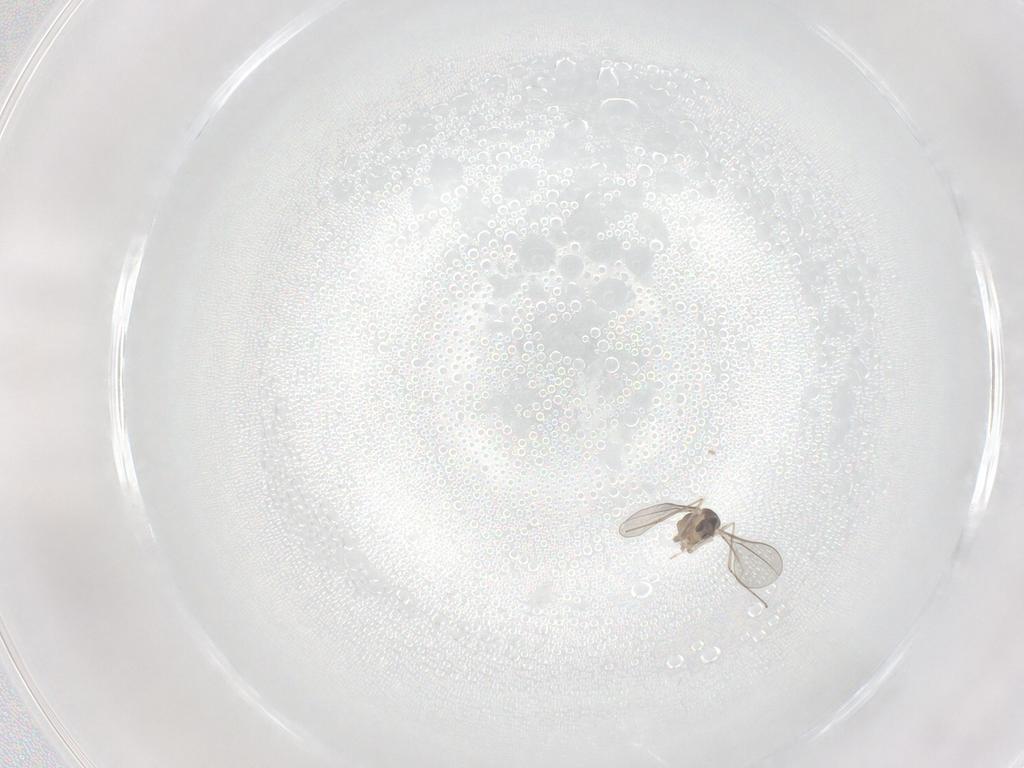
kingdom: Animalia
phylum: Arthropoda
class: Insecta
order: Diptera
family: Cecidomyiidae
